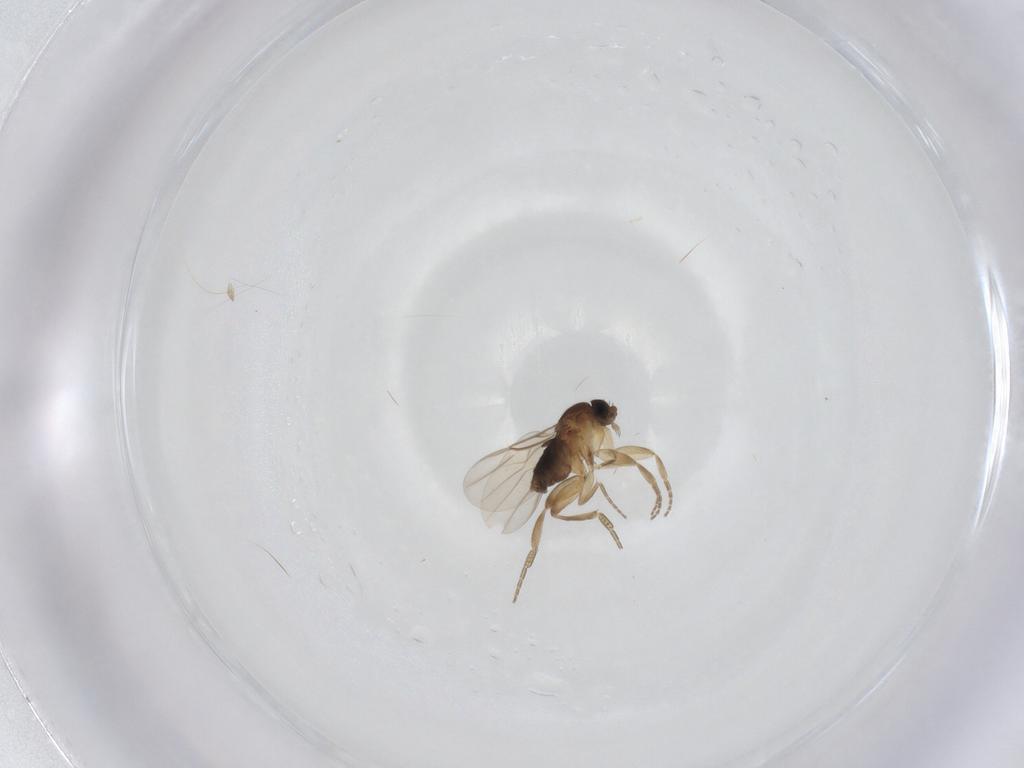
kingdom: Animalia
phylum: Arthropoda
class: Insecta
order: Diptera
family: Phoridae
